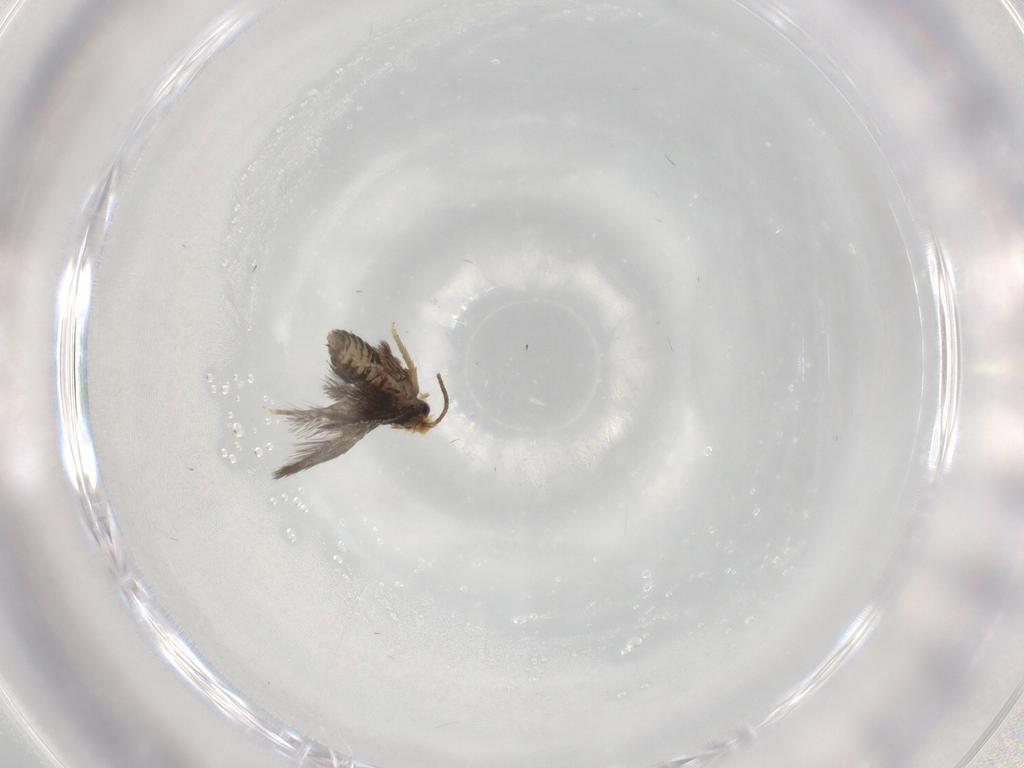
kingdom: Animalia
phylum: Arthropoda
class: Insecta
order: Lepidoptera
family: Nepticulidae
